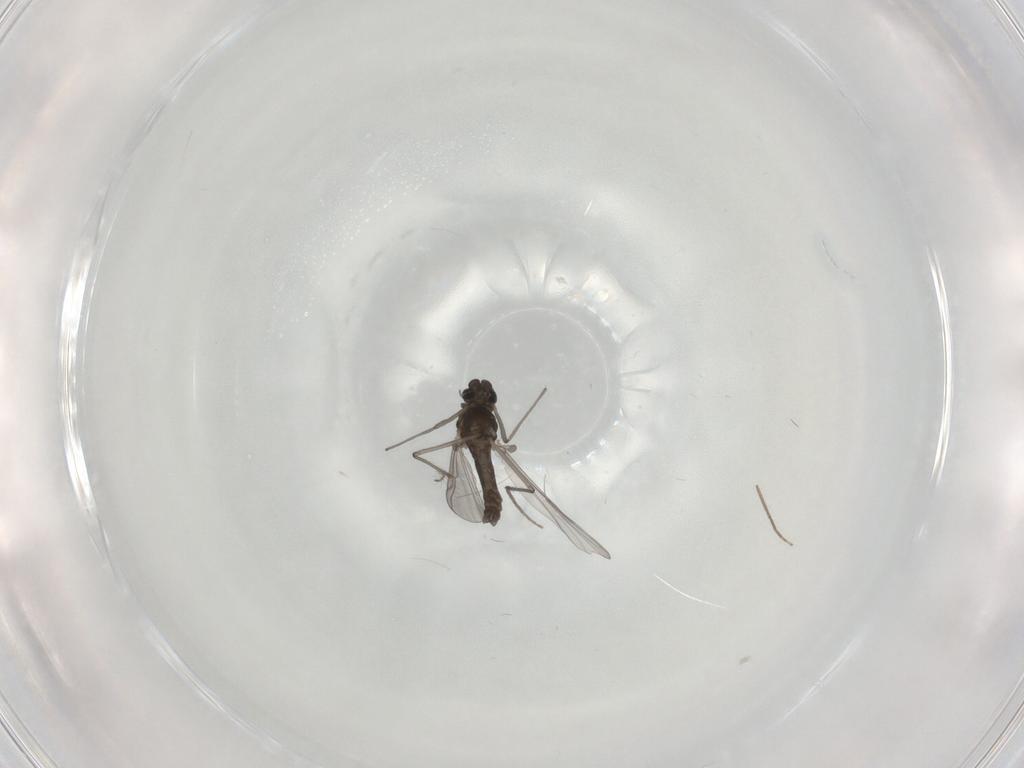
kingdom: Animalia
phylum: Arthropoda
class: Insecta
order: Diptera
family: Chironomidae
